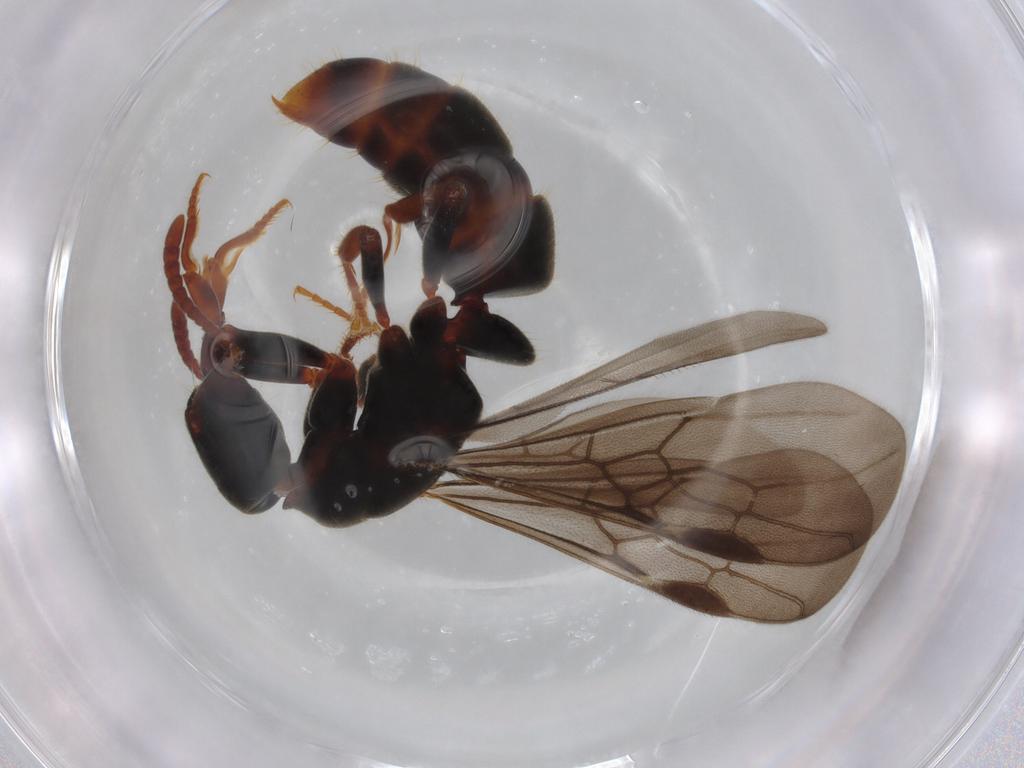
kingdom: Animalia
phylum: Arthropoda
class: Insecta
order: Hymenoptera
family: Formicidae
